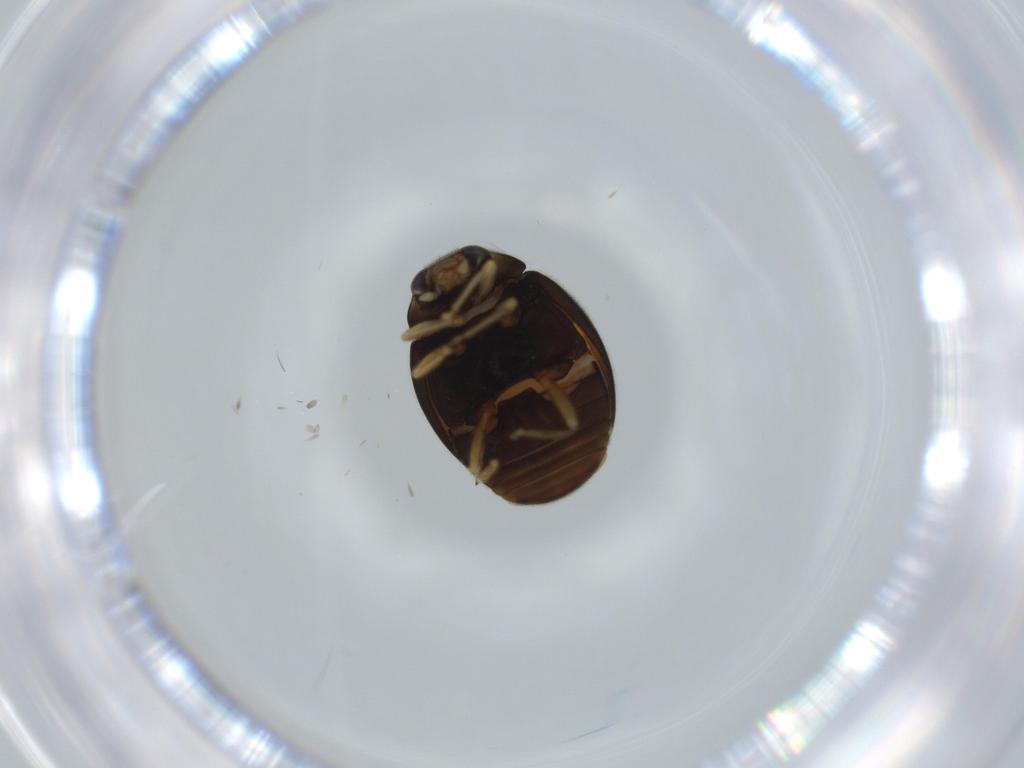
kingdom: Animalia
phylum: Arthropoda
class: Insecta
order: Coleoptera
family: Coccinellidae
